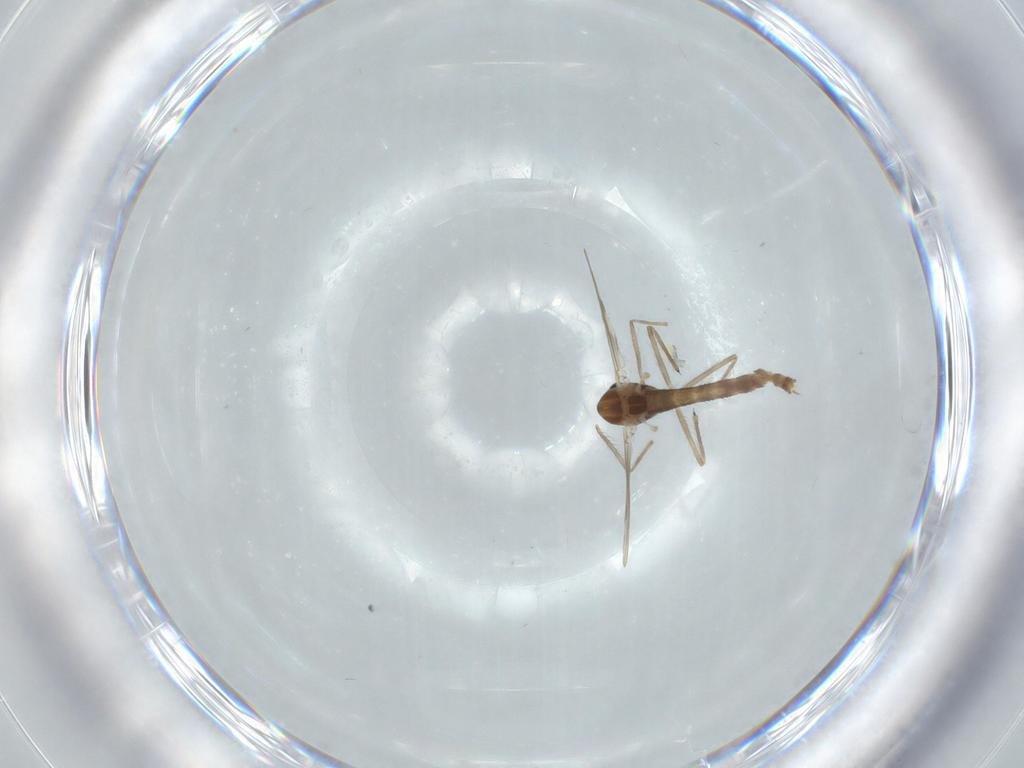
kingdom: Animalia
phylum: Arthropoda
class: Insecta
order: Diptera
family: Chironomidae
